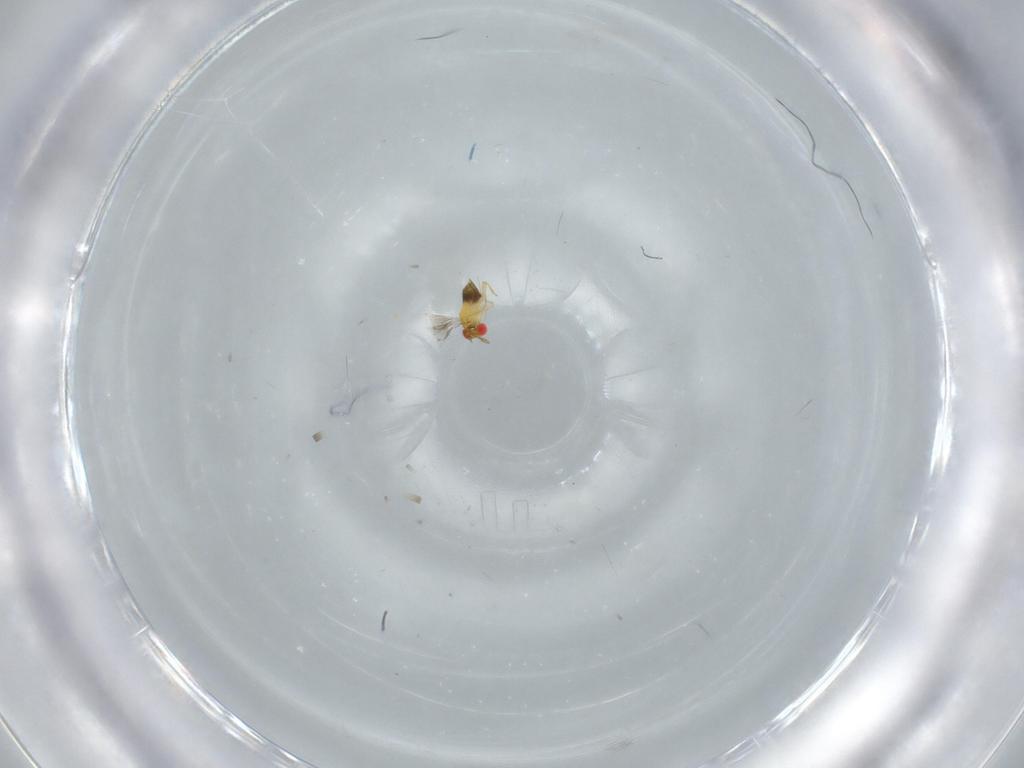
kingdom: Animalia
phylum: Arthropoda
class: Insecta
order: Hymenoptera
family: Trichogrammatidae
